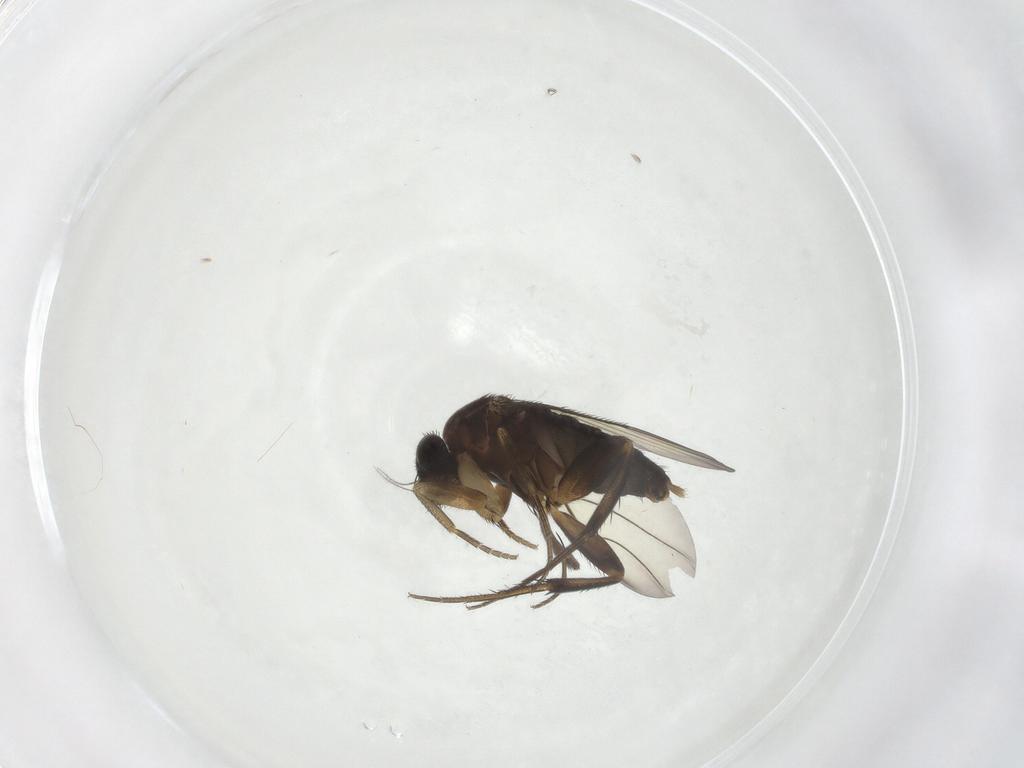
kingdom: Animalia
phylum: Arthropoda
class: Insecta
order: Diptera
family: Phoridae
